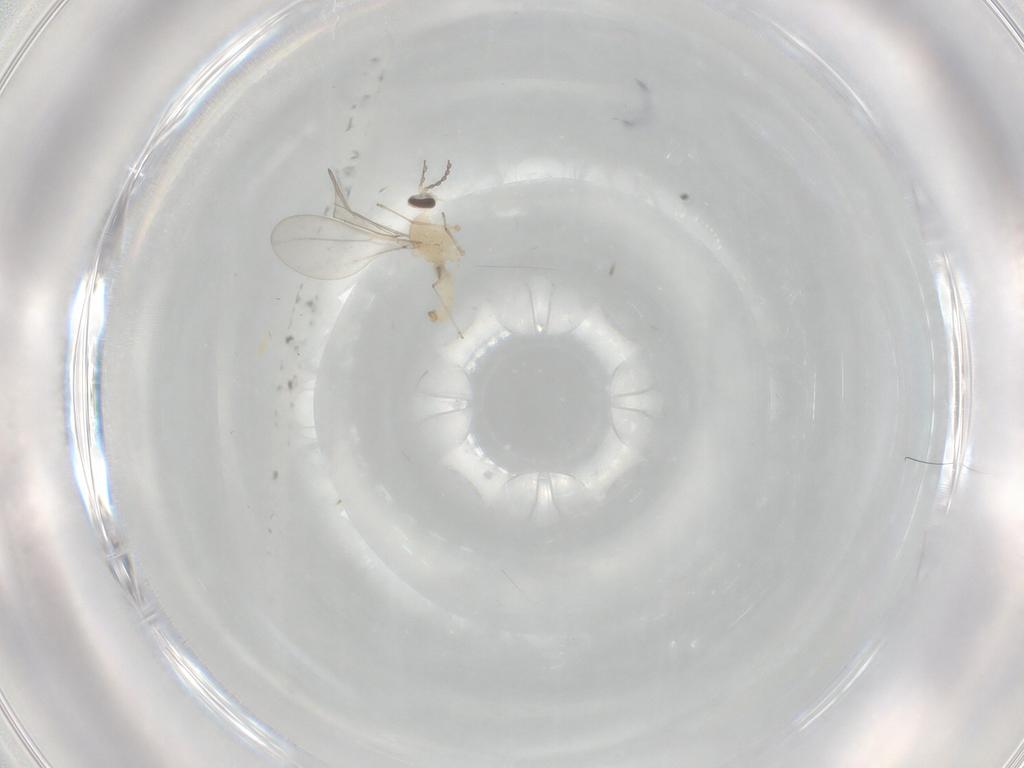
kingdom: Animalia
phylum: Arthropoda
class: Insecta
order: Diptera
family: Cecidomyiidae
